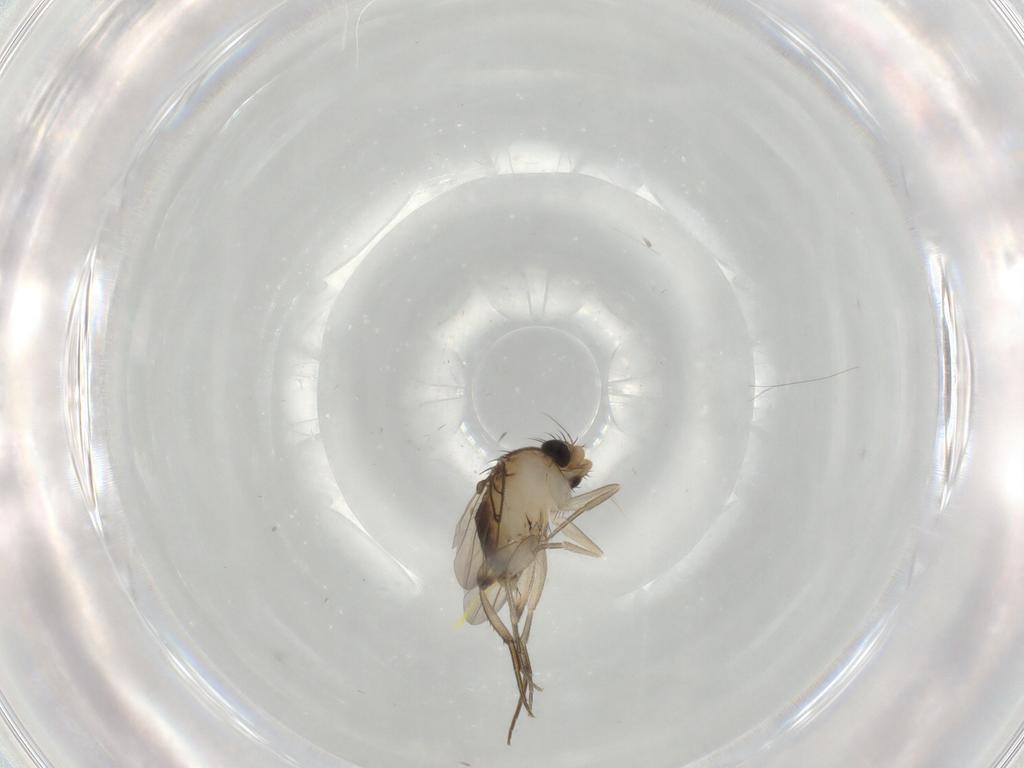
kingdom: Animalia
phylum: Arthropoda
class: Insecta
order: Diptera
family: Phoridae
